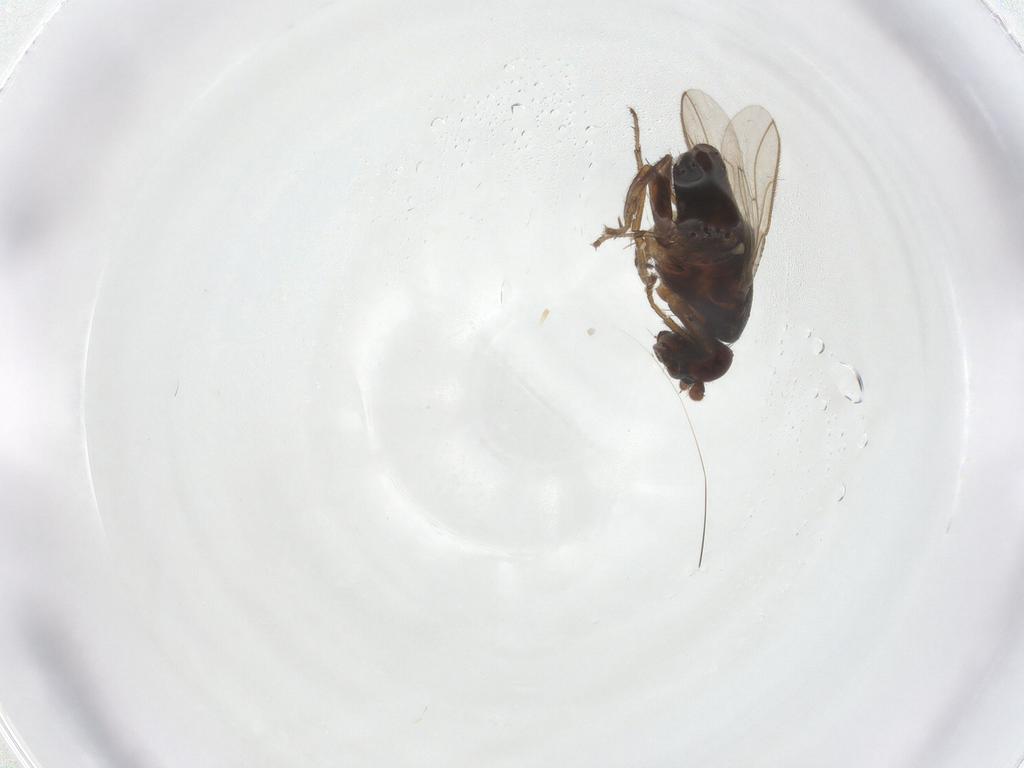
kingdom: Animalia
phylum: Arthropoda
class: Insecta
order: Diptera
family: Sphaeroceridae
